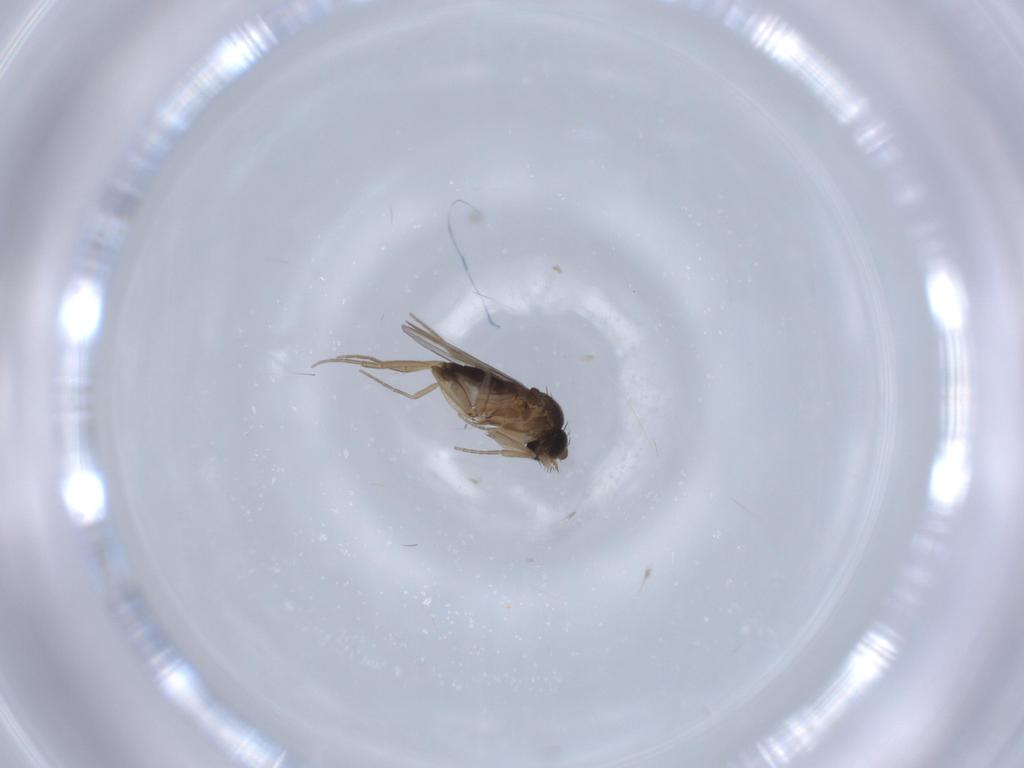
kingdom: Animalia
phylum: Arthropoda
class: Insecta
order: Diptera
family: Phoridae
